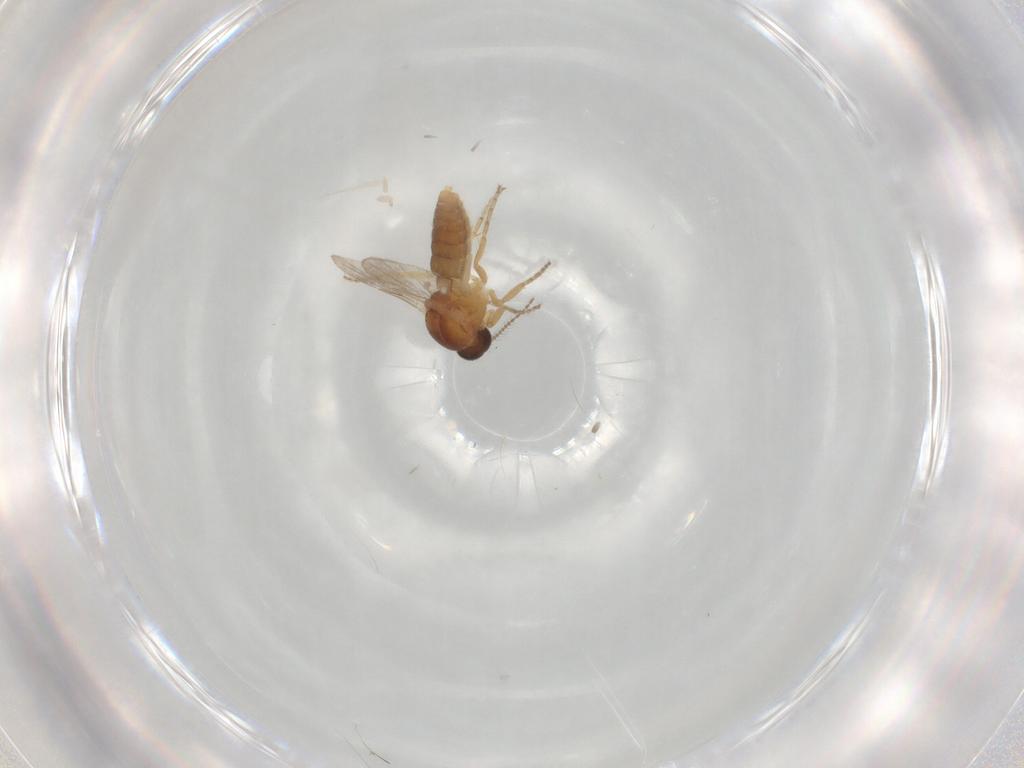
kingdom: Animalia
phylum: Arthropoda
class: Insecta
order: Diptera
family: Ceratopogonidae
